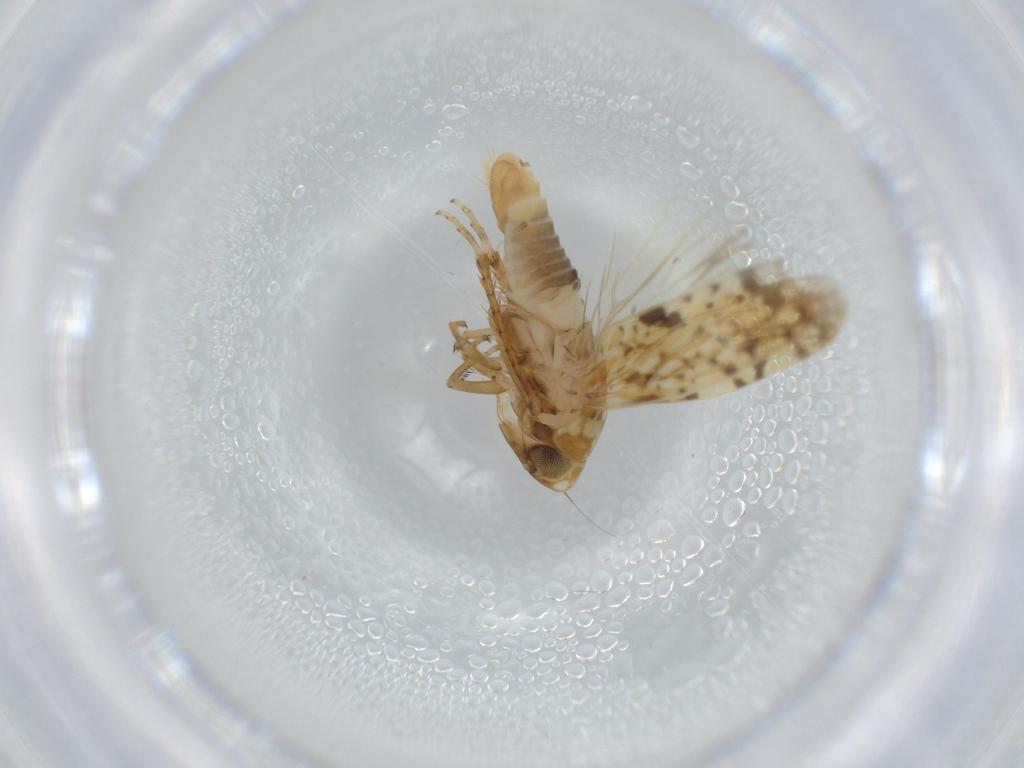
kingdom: Animalia
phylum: Arthropoda
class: Insecta
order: Hemiptera
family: Cicadellidae
